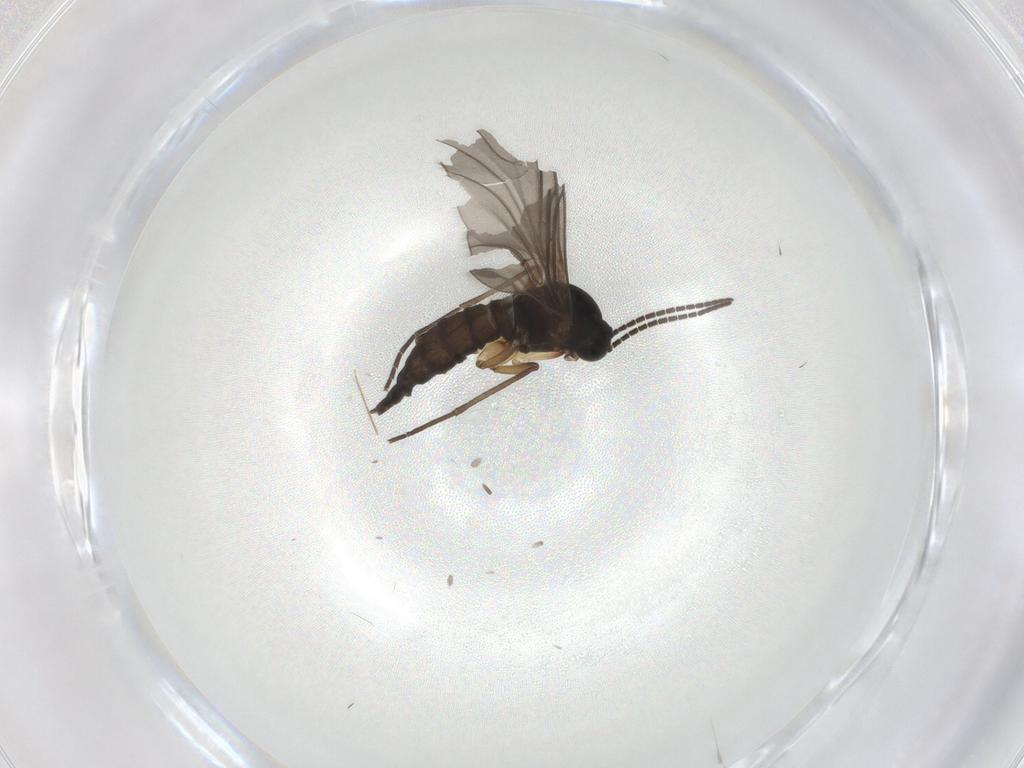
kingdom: Animalia
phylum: Arthropoda
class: Insecta
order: Diptera
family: Sciaridae
